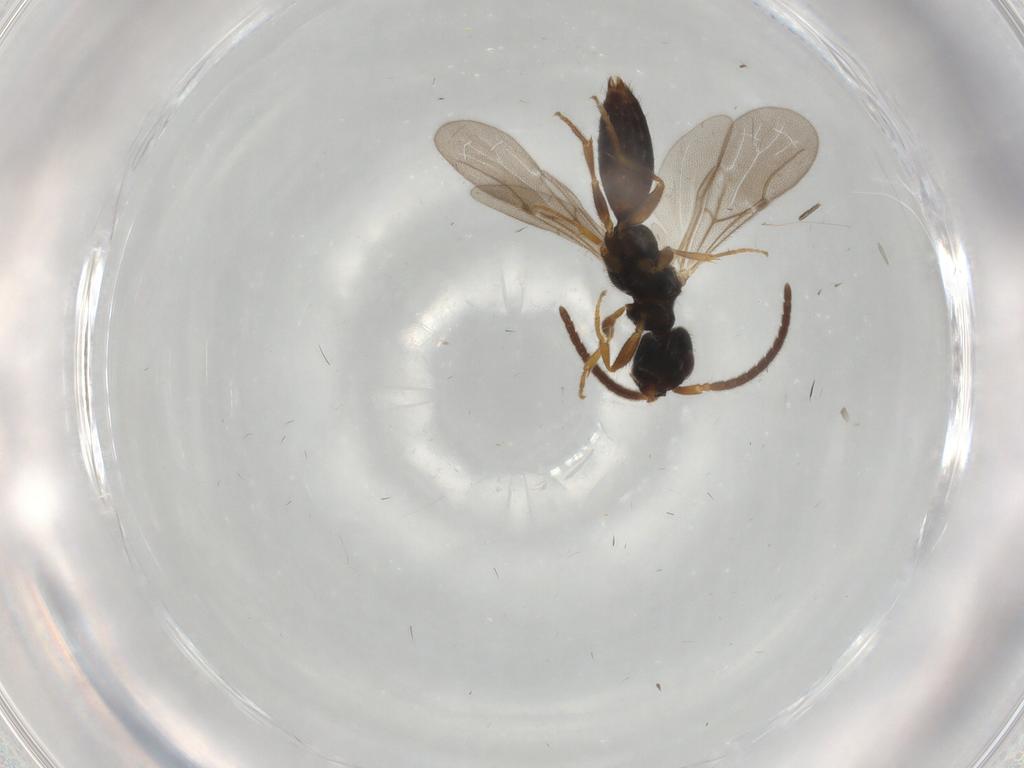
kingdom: Animalia
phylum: Arthropoda
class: Insecta
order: Hymenoptera
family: Bethylidae
